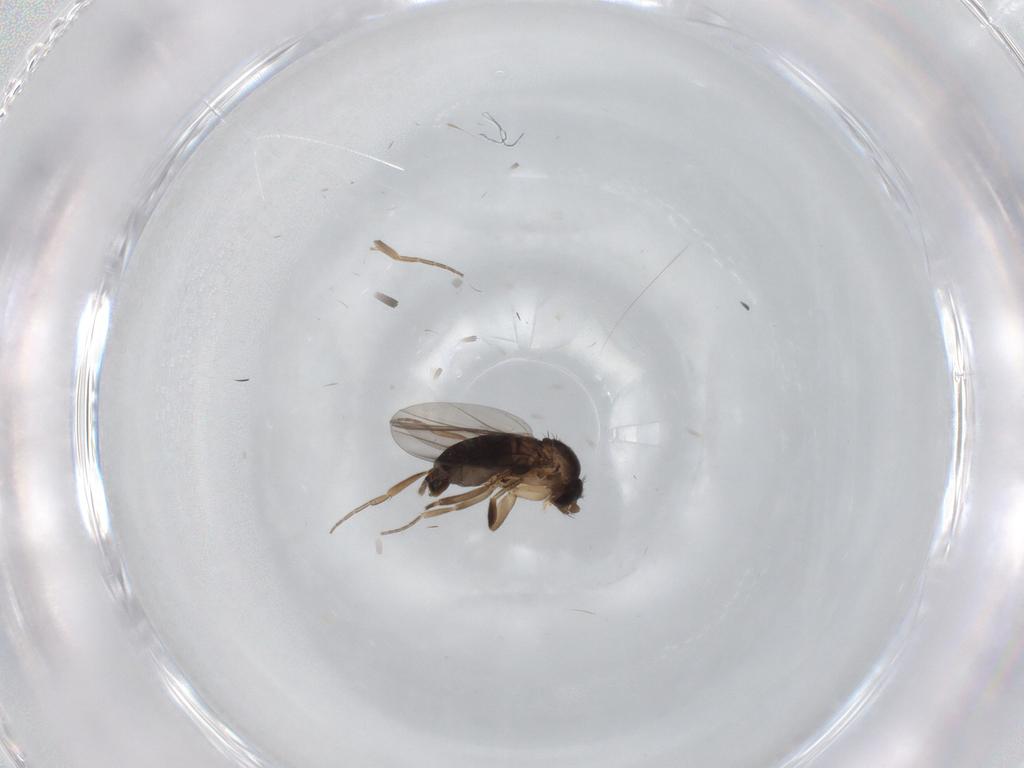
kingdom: Animalia
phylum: Arthropoda
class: Insecta
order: Diptera
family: Phoridae
